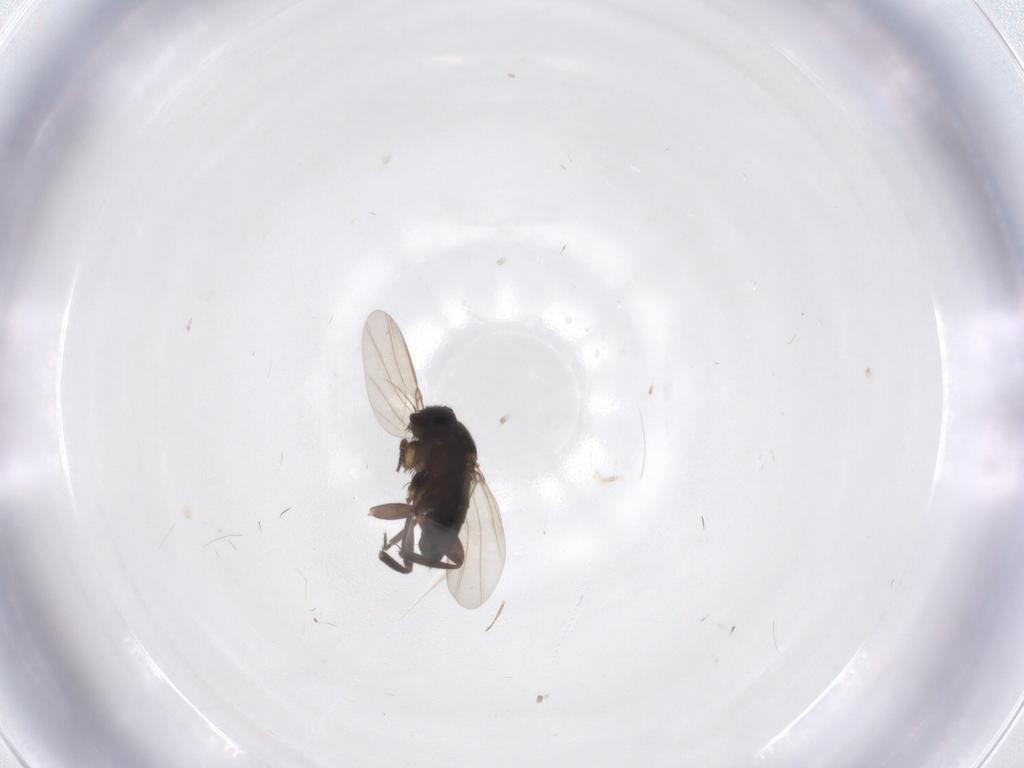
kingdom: Animalia
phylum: Arthropoda
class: Insecta
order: Diptera
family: Phoridae
